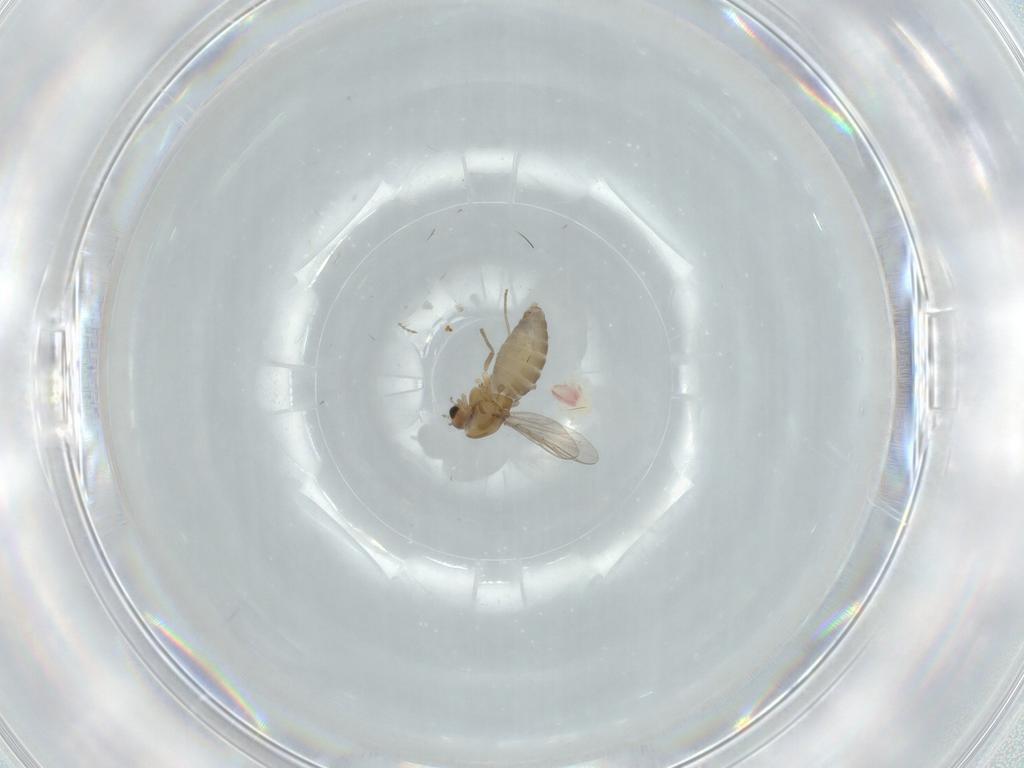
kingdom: Animalia
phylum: Arthropoda
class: Insecta
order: Diptera
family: Chironomidae
